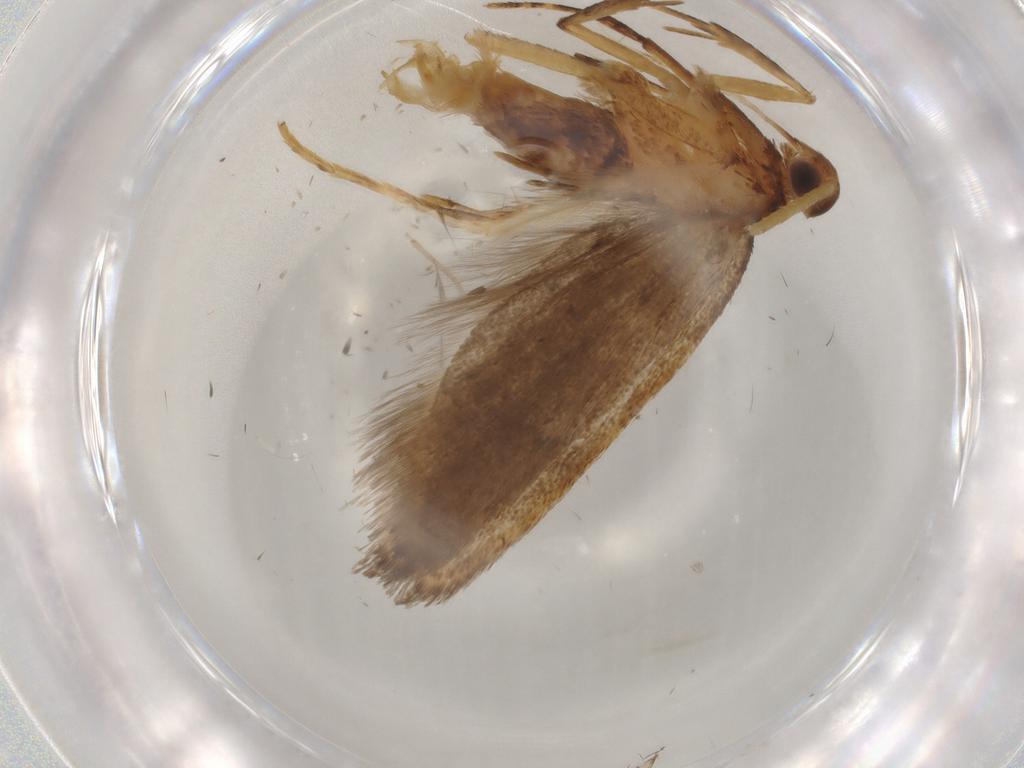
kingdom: Animalia
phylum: Arthropoda
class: Insecta
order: Lepidoptera
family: Lecithoceridae
